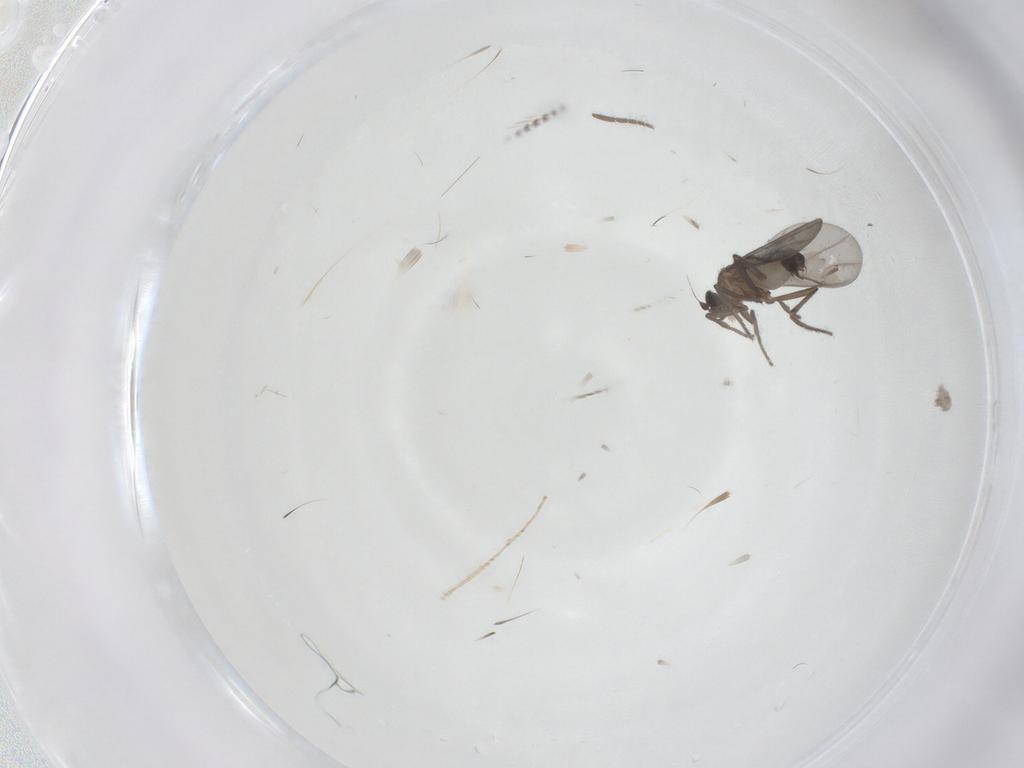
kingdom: Animalia
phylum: Arthropoda
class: Insecta
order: Diptera
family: Phoridae
